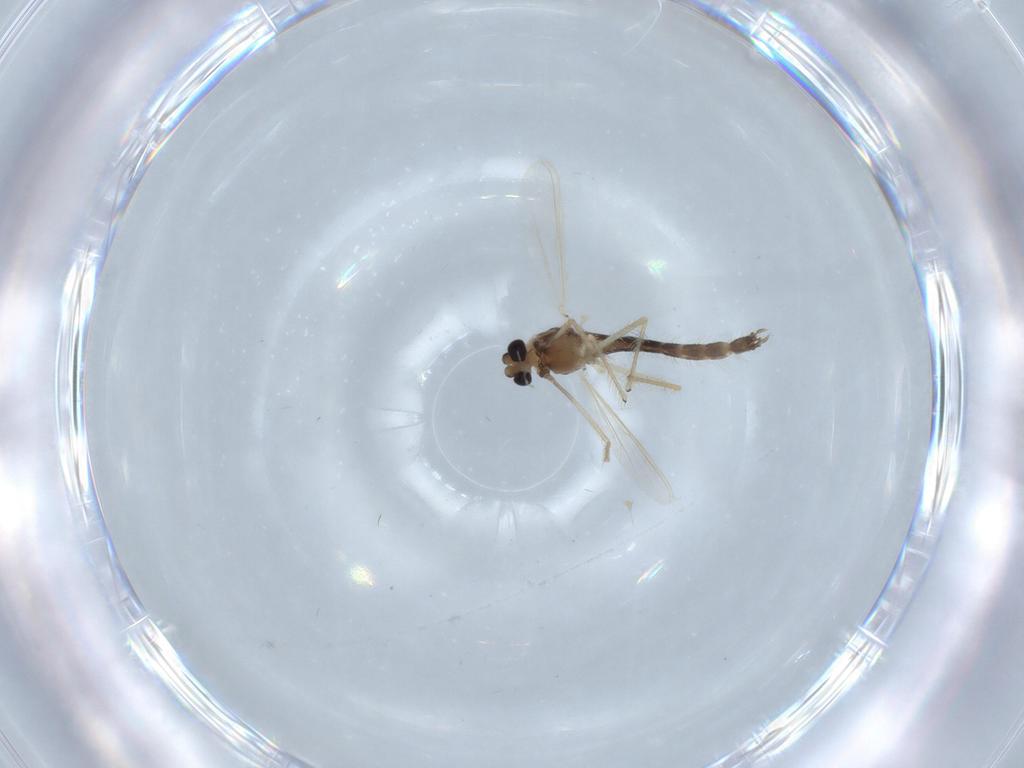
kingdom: Animalia
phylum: Arthropoda
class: Insecta
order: Diptera
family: Chironomidae
